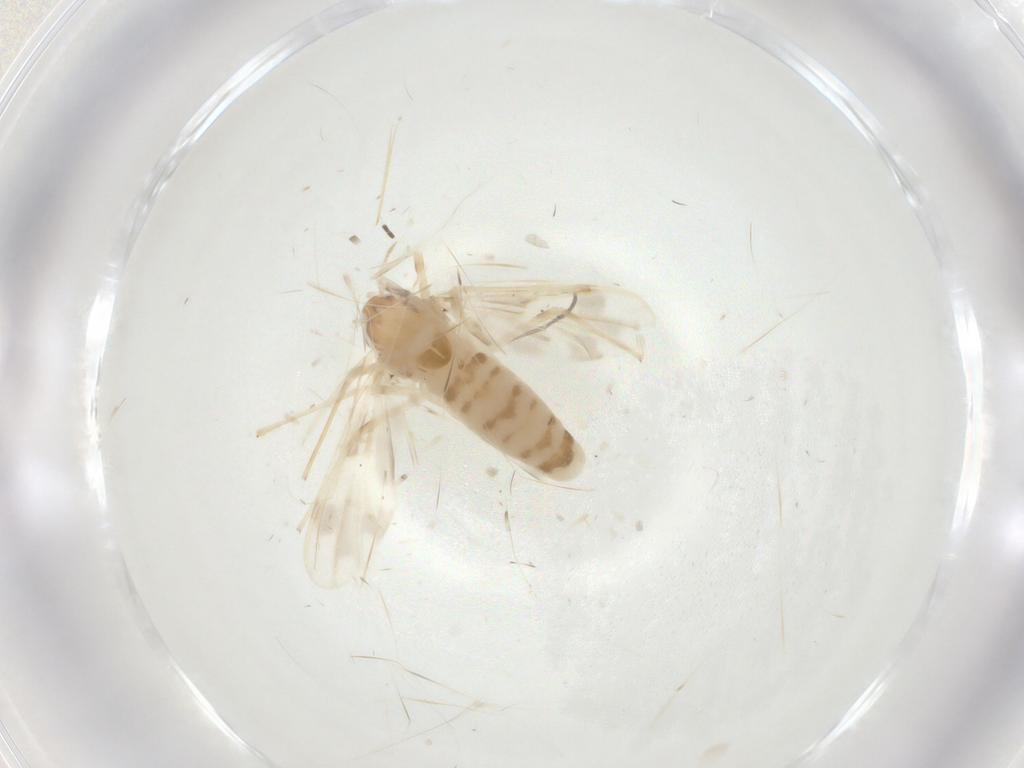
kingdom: Animalia
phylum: Arthropoda
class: Insecta
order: Diptera
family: Chironomidae
